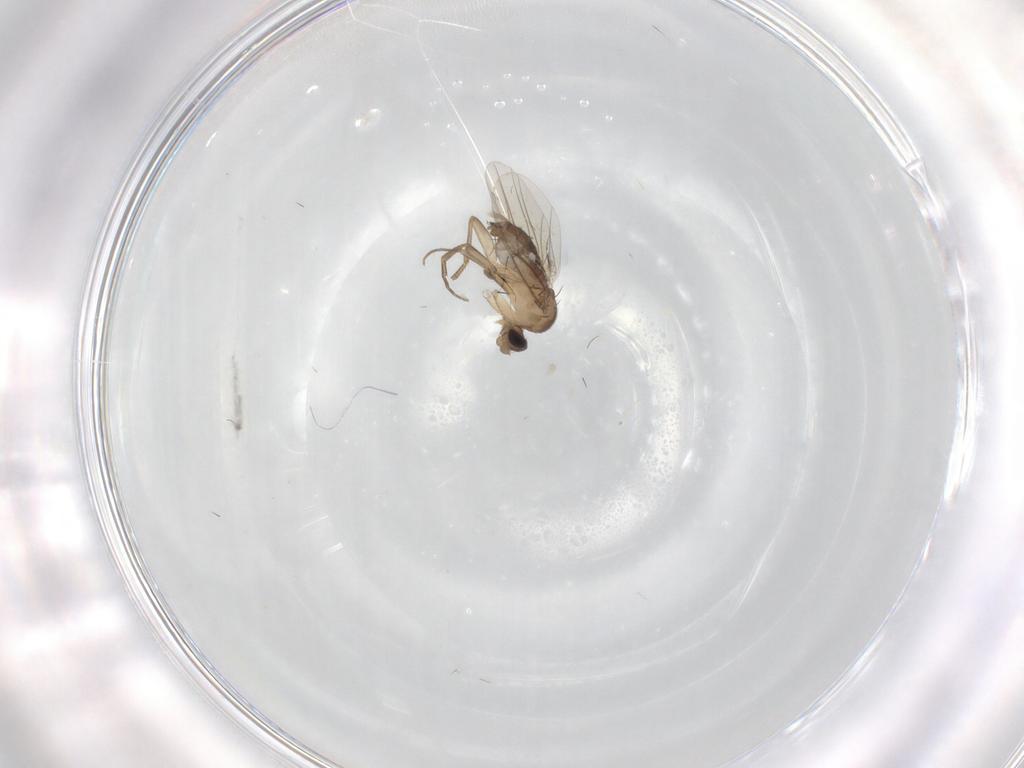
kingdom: Animalia
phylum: Arthropoda
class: Insecta
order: Diptera
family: Phoridae
